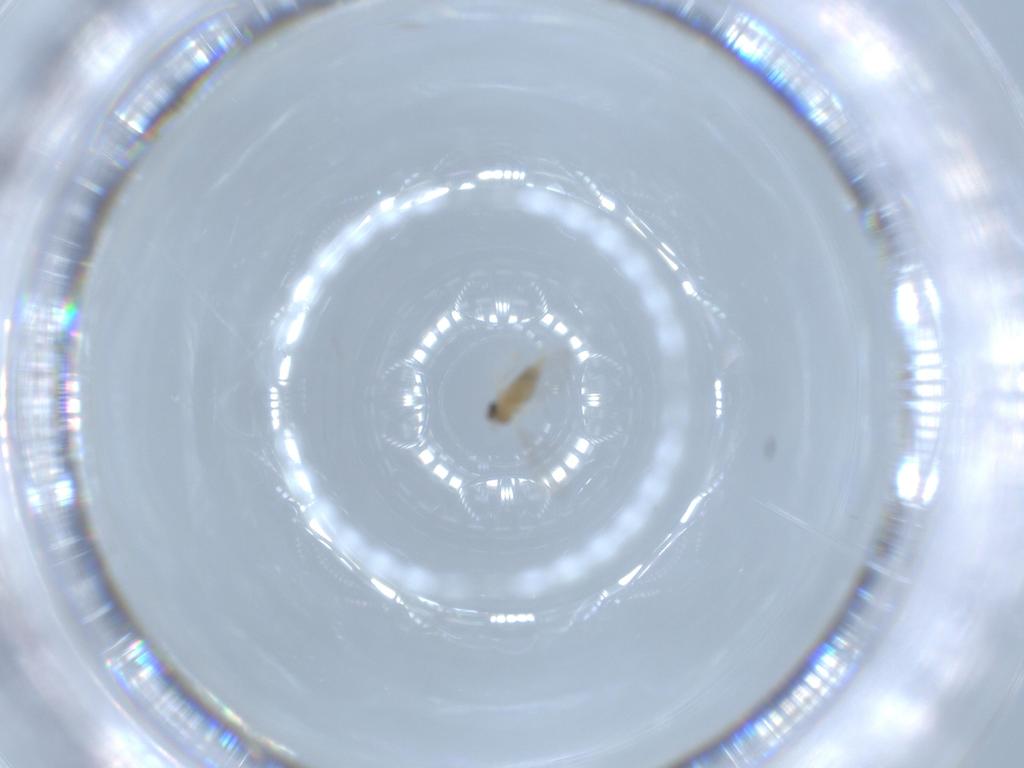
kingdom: Animalia
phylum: Arthropoda
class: Insecta
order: Diptera
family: Cecidomyiidae
